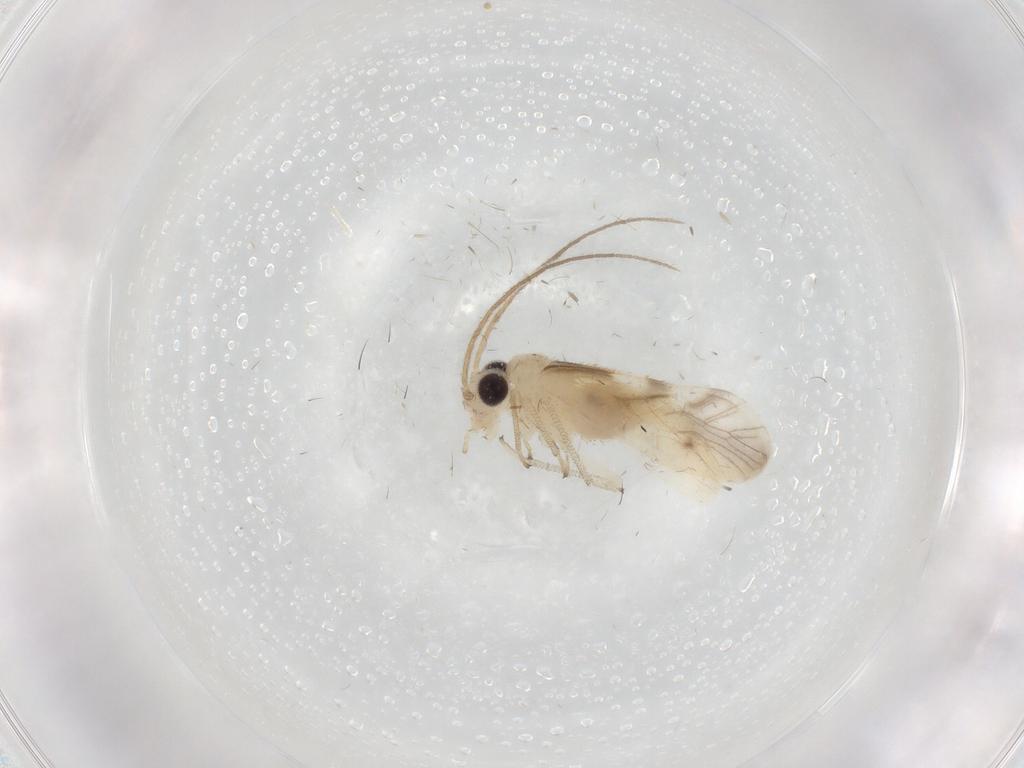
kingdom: Animalia
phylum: Arthropoda
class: Insecta
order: Psocodea
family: Caeciliusidae
